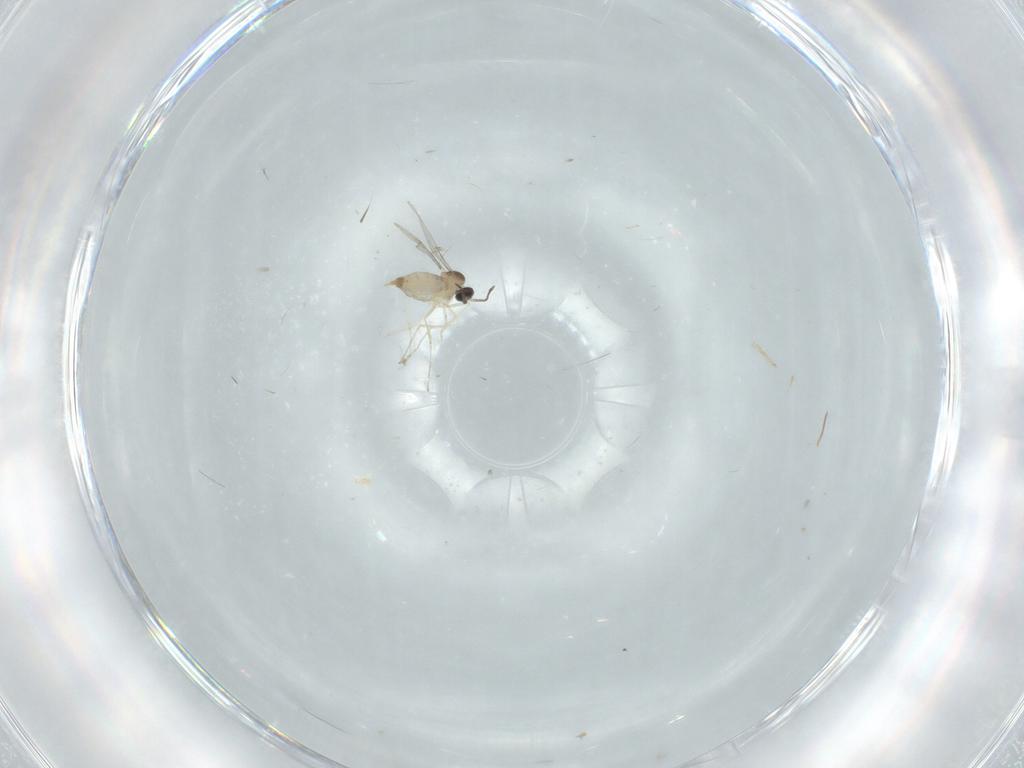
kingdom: Animalia
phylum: Arthropoda
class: Insecta
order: Diptera
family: Cecidomyiidae
